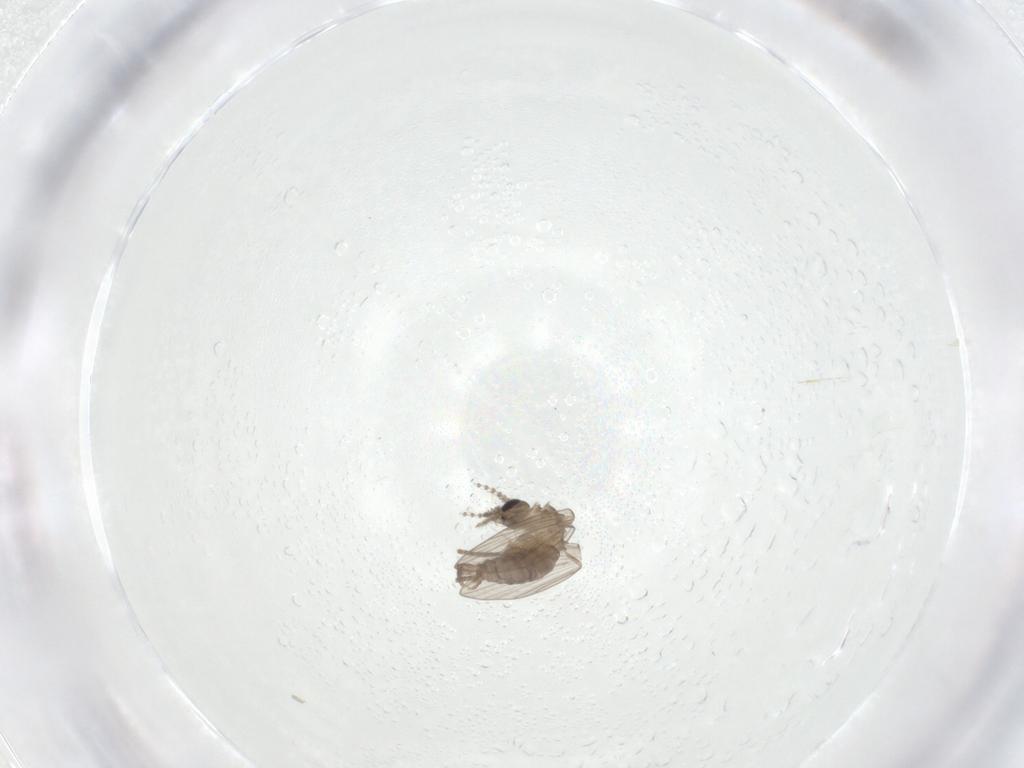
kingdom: Animalia
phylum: Arthropoda
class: Insecta
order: Diptera
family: Psychodidae
